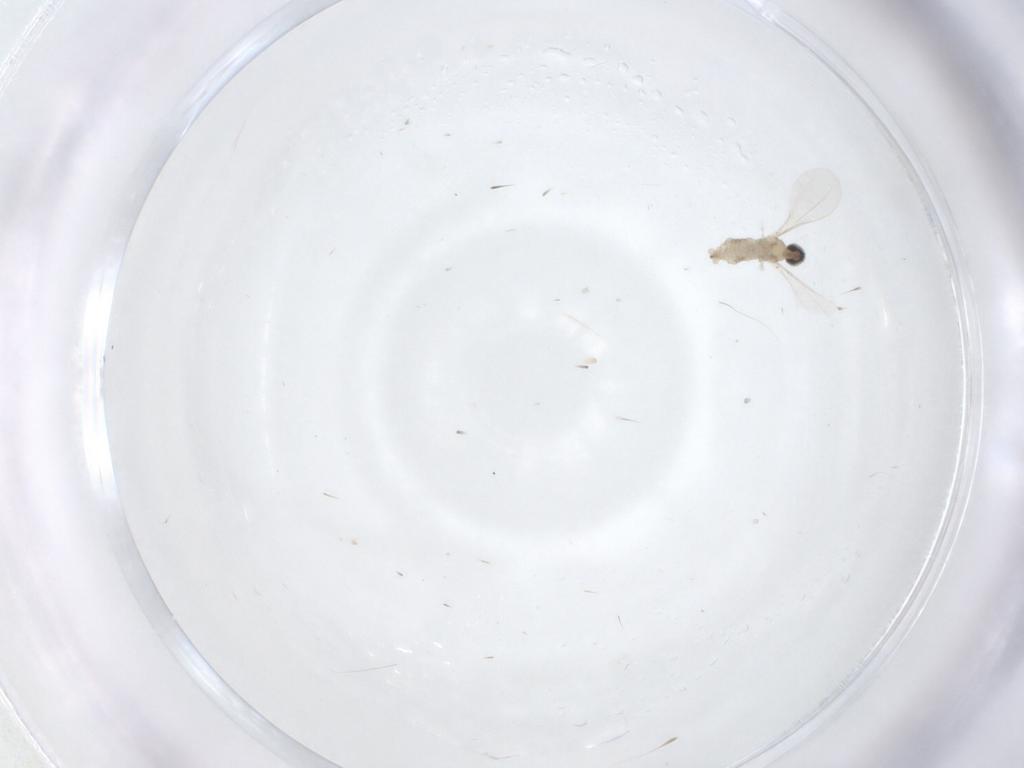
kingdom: Animalia
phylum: Arthropoda
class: Insecta
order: Diptera
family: Cecidomyiidae
